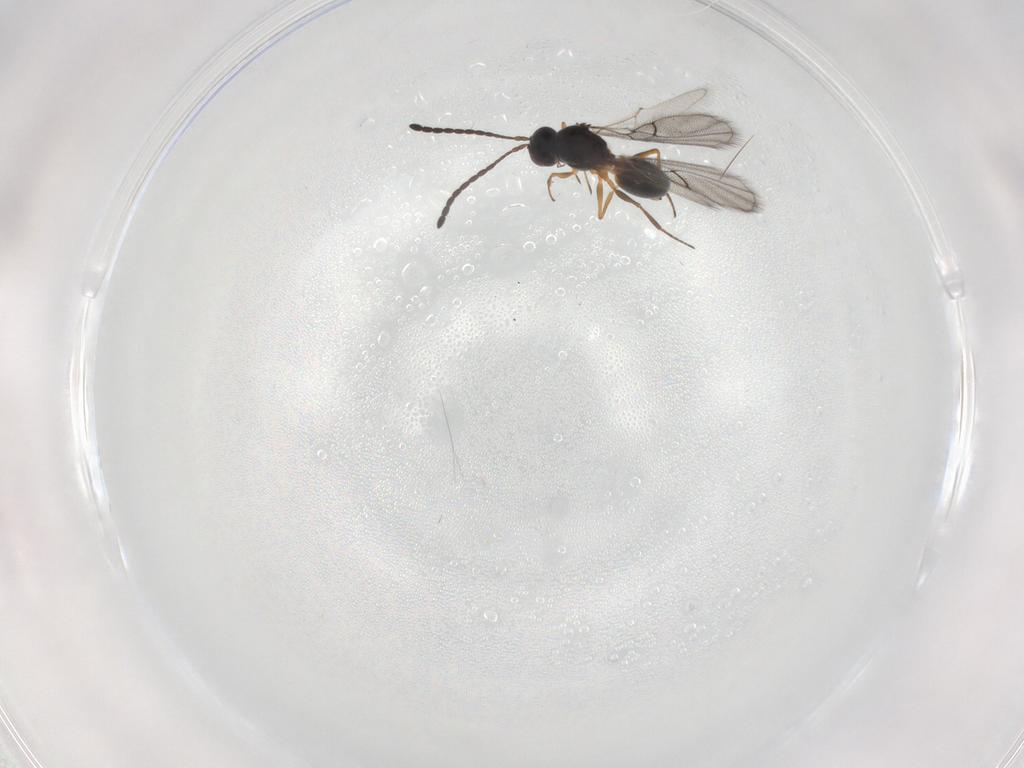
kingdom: Animalia
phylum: Arthropoda
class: Insecta
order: Hymenoptera
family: Figitidae
